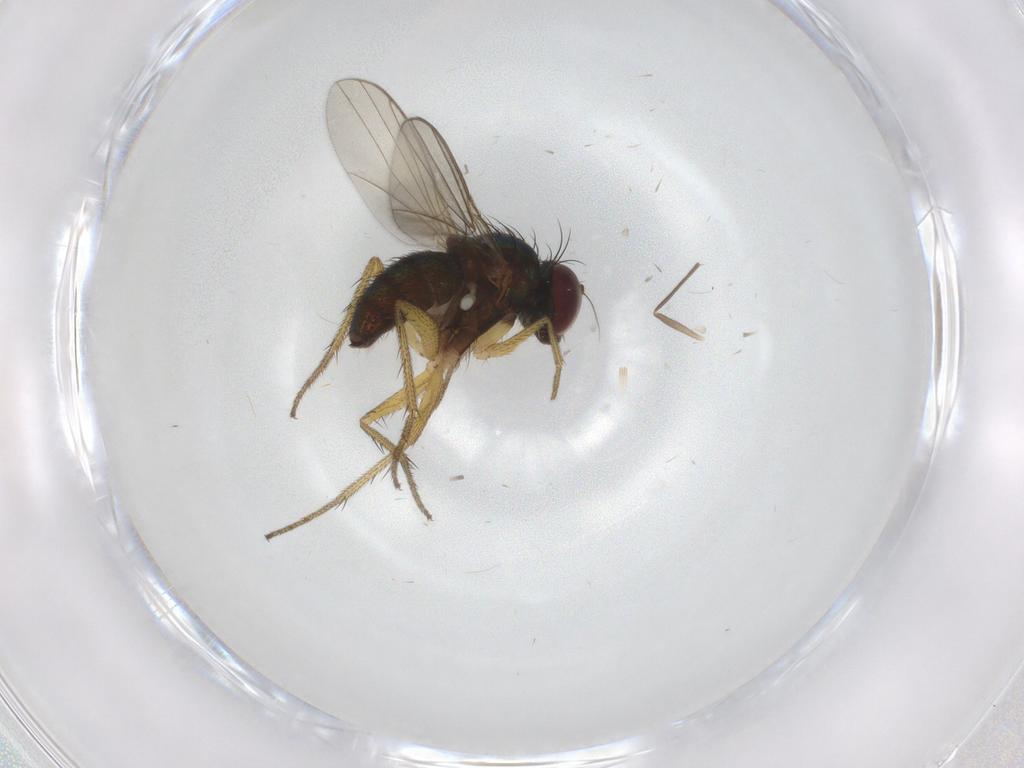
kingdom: Animalia
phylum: Arthropoda
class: Insecta
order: Diptera
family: Chironomidae
